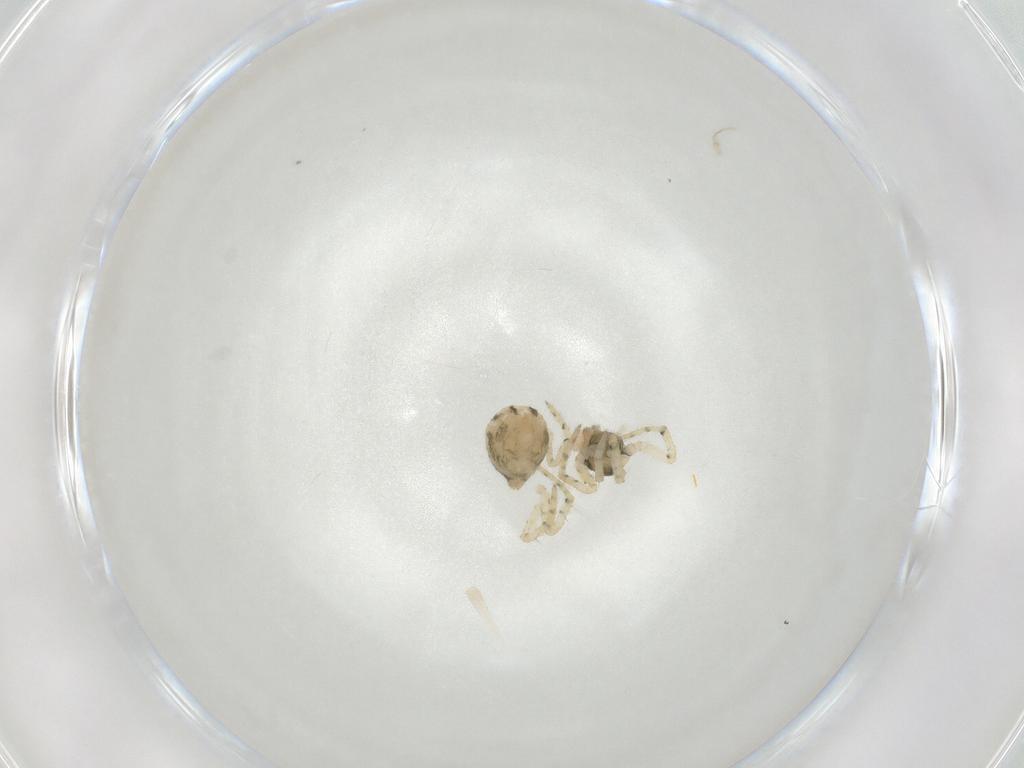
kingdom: Animalia
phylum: Arthropoda
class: Arachnida
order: Araneae
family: Theridiidae
